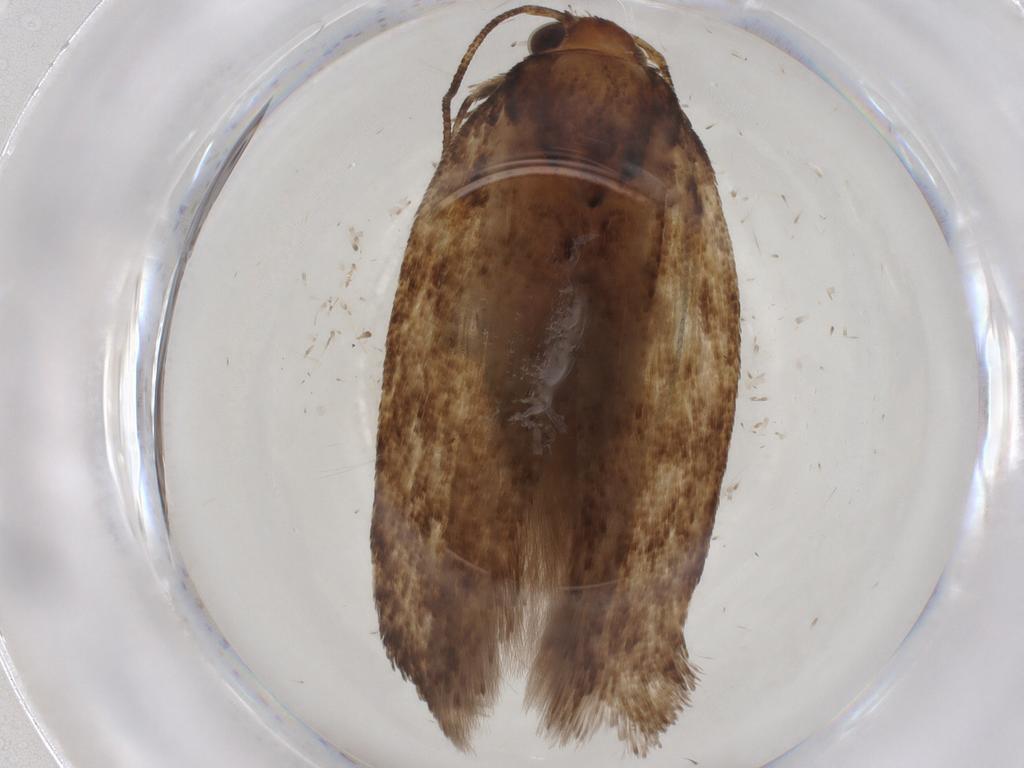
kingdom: Animalia
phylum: Arthropoda
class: Insecta
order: Lepidoptera
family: Gelechiidae
